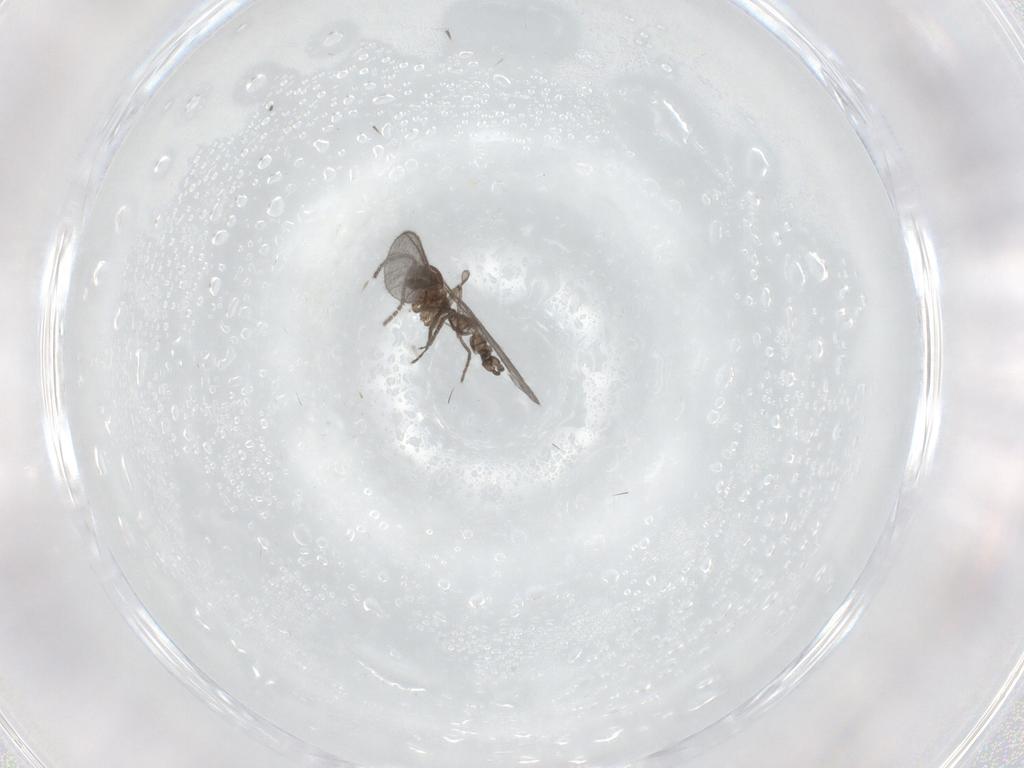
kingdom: Animalia
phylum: Arthropoda
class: Insecta
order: Diptera
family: Sciaridae
